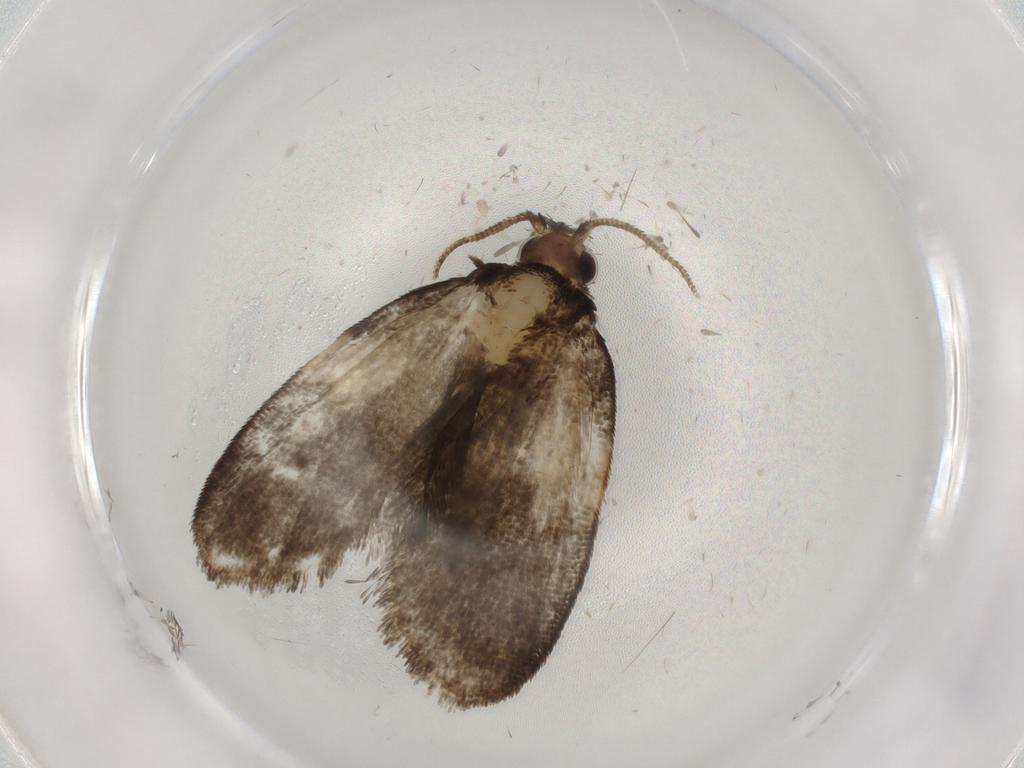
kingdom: Animalia
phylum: Arthropoda
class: Insecta
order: Lepidoptera
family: Psychidae
